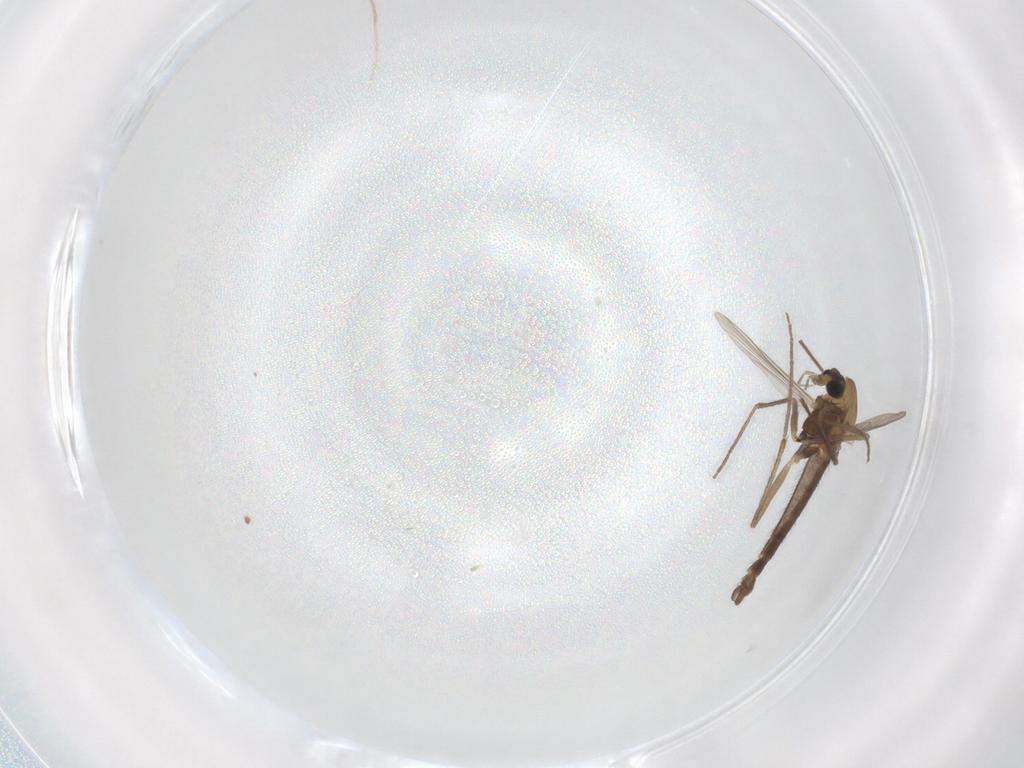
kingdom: Animalia
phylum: Arthropoda
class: Insecta
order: Diptera
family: Chironomidae
